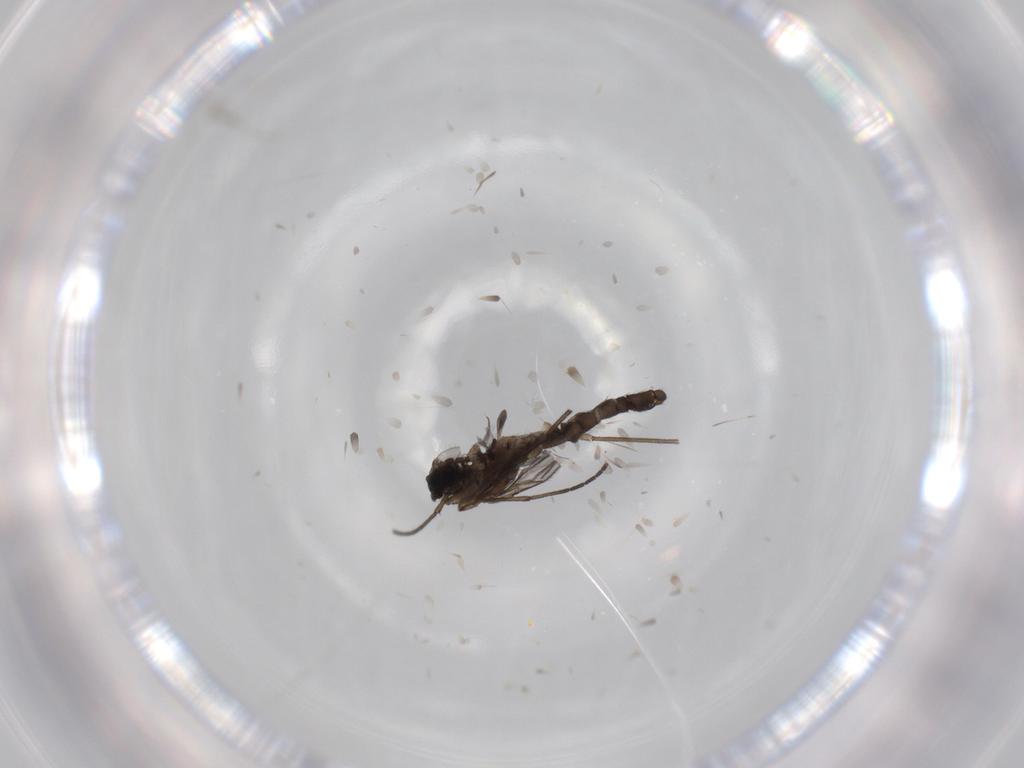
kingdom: Animalia
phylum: Arthropoda
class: Insecta
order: Diptera
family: Sciaridae
